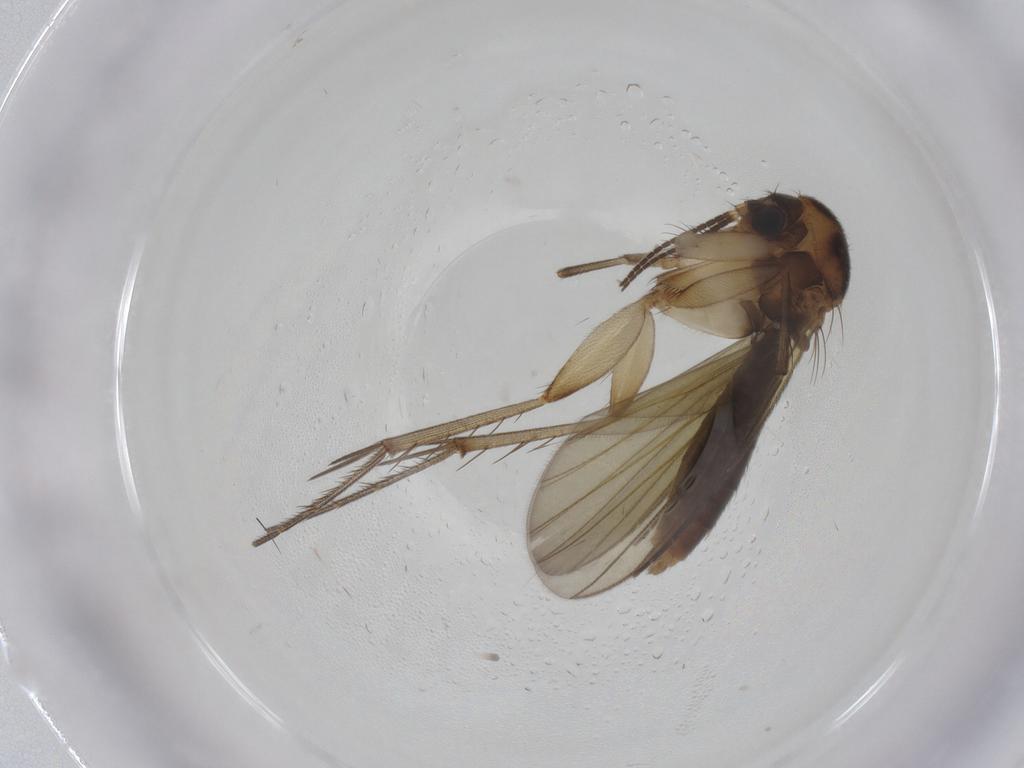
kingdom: Animalia
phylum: Arthropoda
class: Insecta
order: Diptera
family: Mycetophilidae
